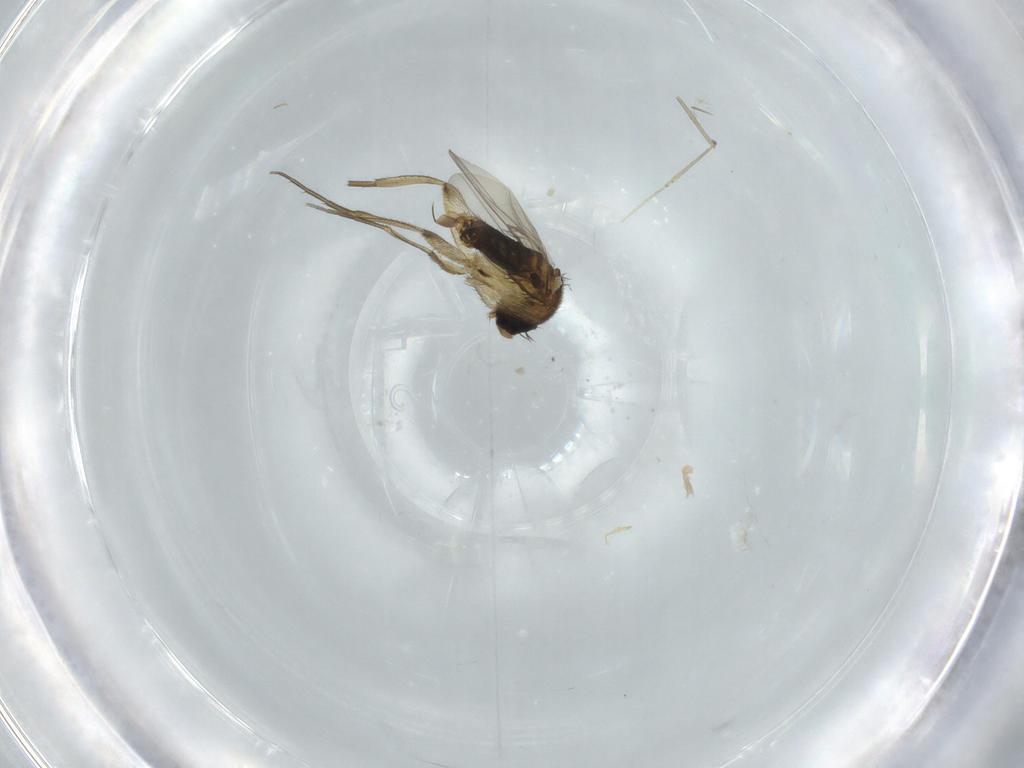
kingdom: Animalia
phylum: Arthropoda
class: Insecta
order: Diptera
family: Phoridae
